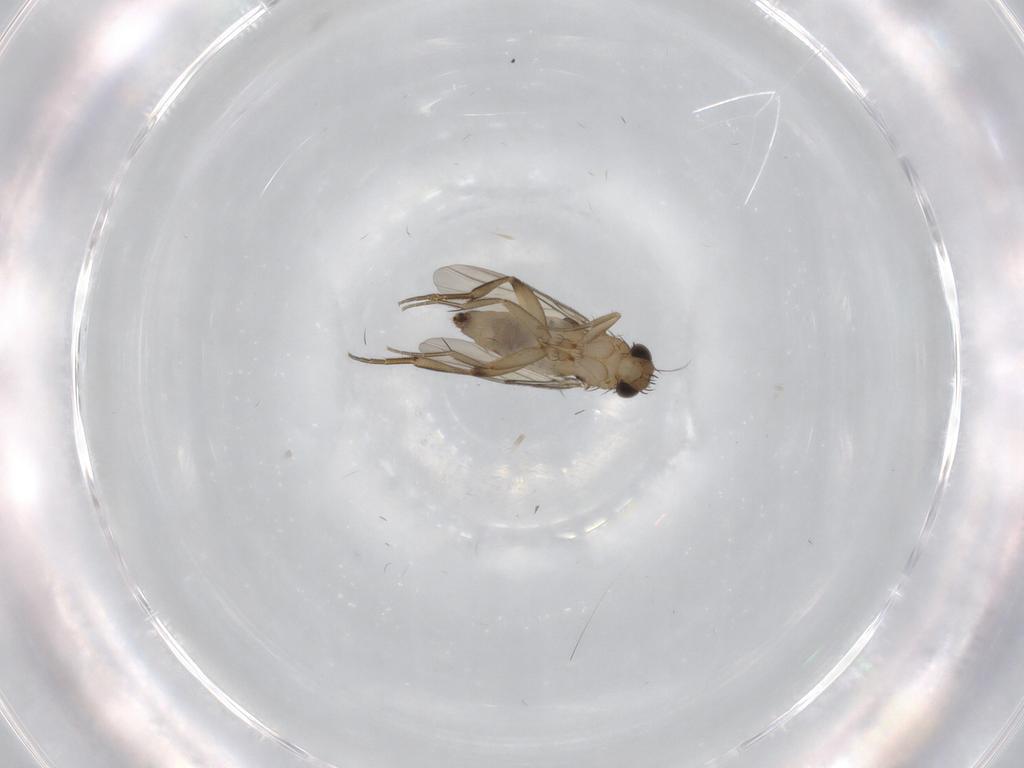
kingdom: Animalia
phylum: Arthropoda
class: Insecta
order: Diptera
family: Phoridae
